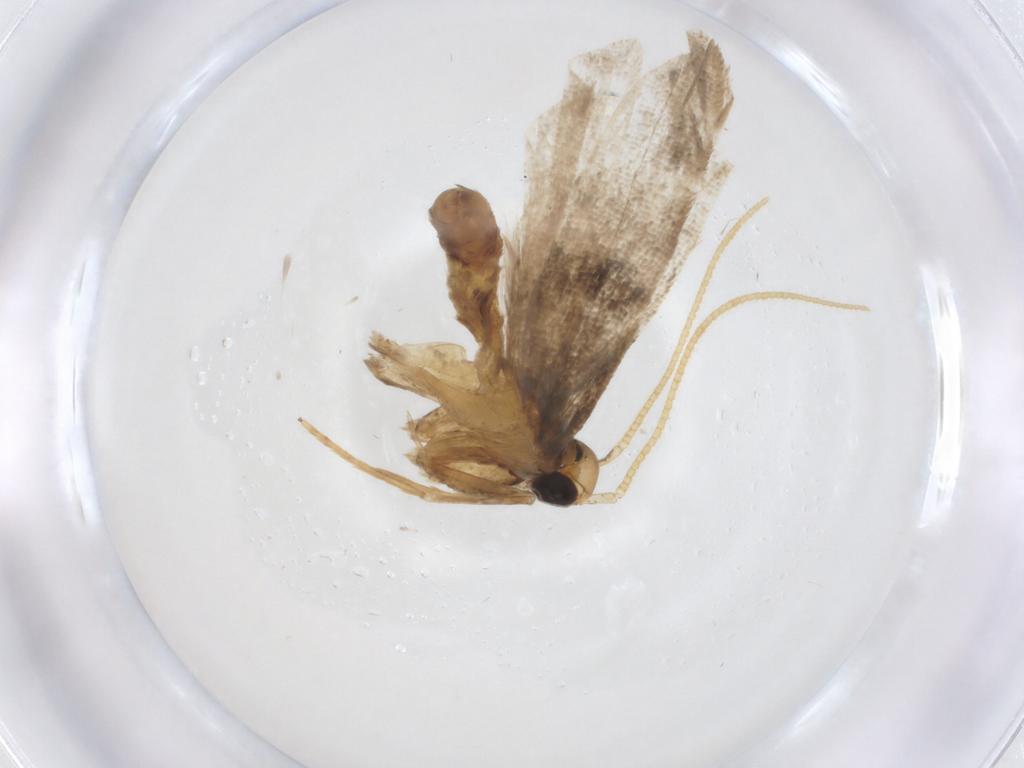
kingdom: Animalia
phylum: Arthropoda
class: Insecta
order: Lepidoptera
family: Lecithoceridae
